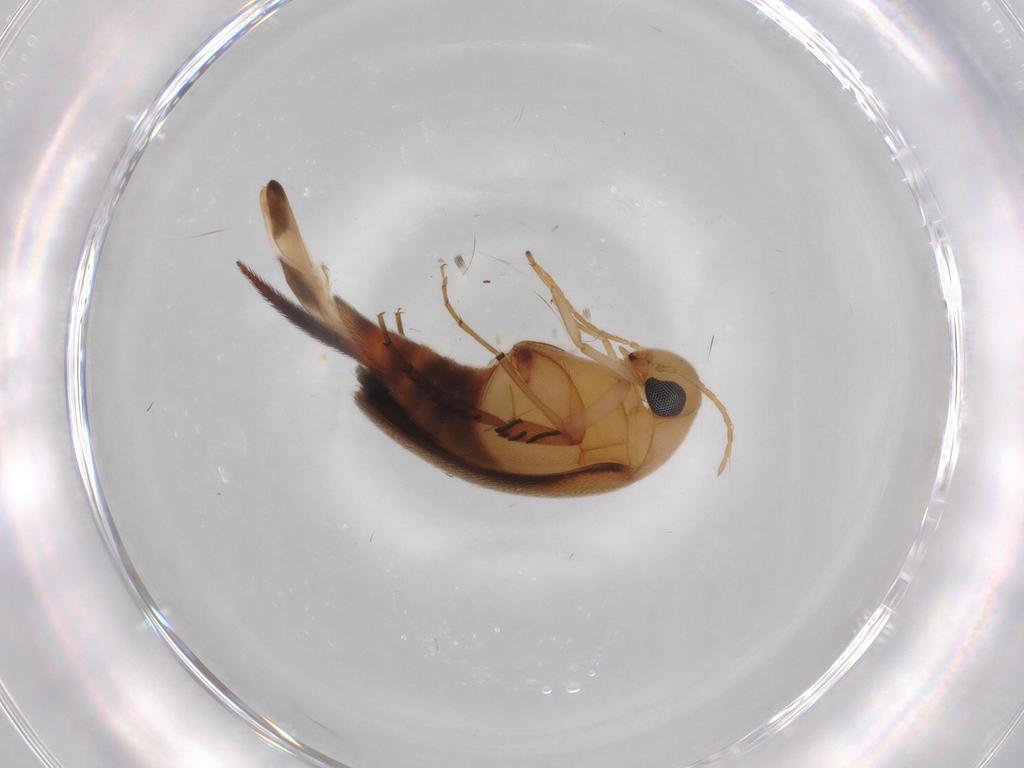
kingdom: Animalia
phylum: Arthropoda
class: Insecta
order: Coleoptera
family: Mordellidae
